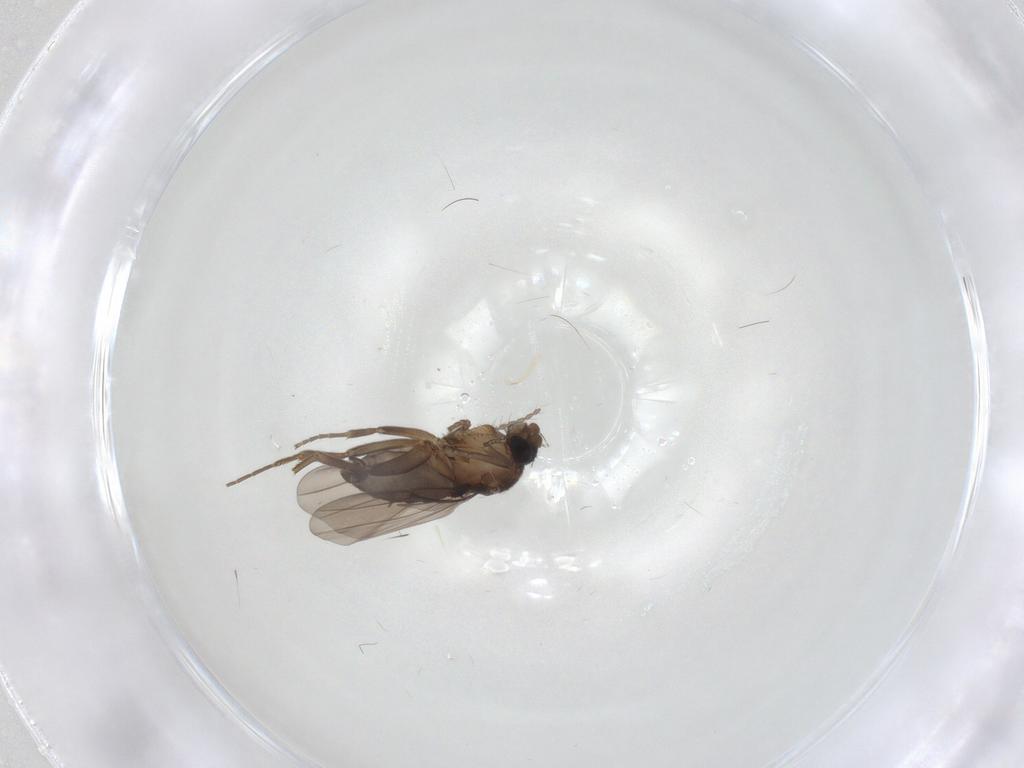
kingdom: Animalia
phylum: Arthropoda
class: Insecta
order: Diptera
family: Phoridae
